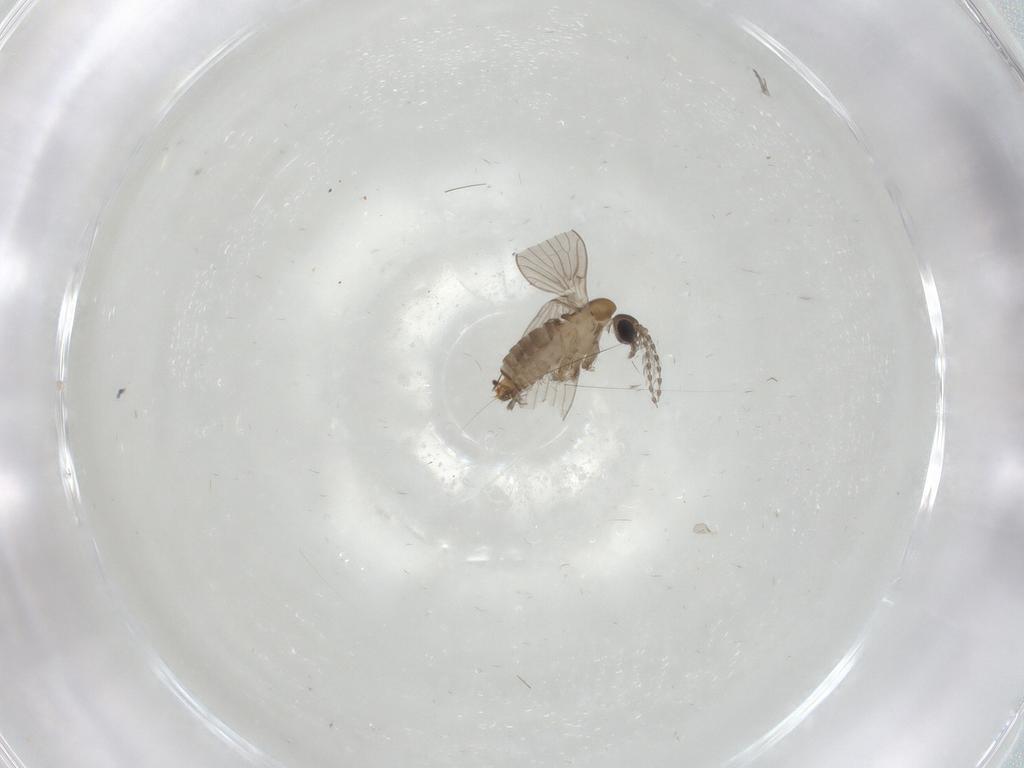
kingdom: Animalia
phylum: Arthropoda
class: Insecta
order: Diptera
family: Psychodidae
